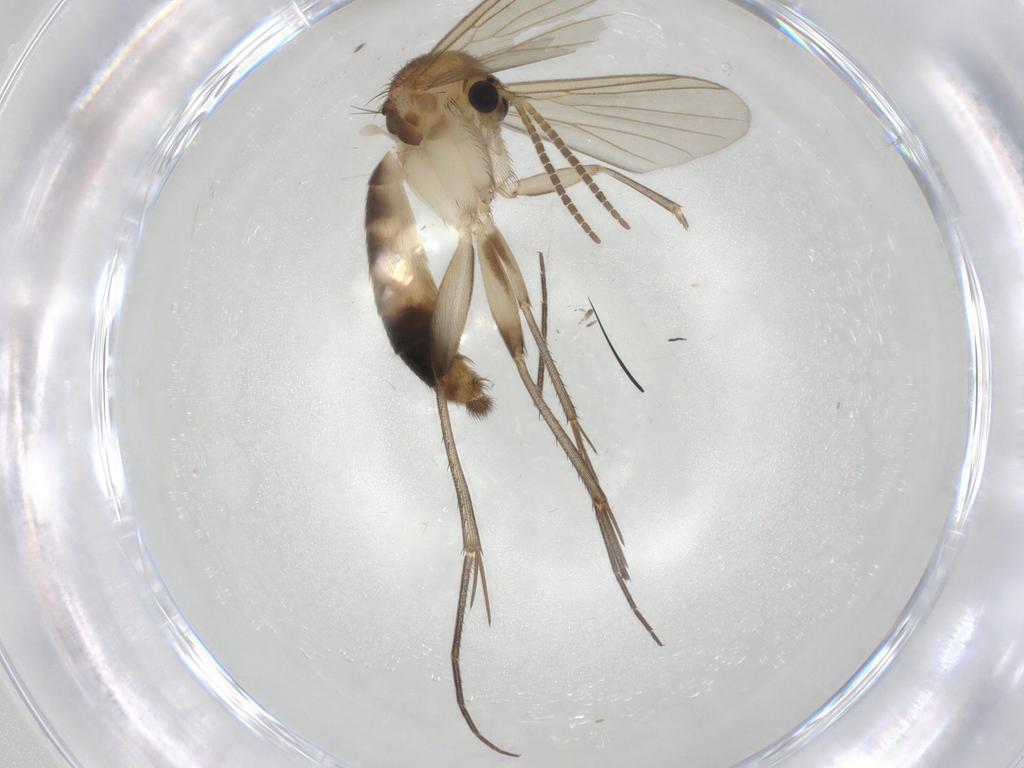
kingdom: Animalia
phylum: Arthropoda
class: Insecta
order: Diptera
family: Mycetophilidae
